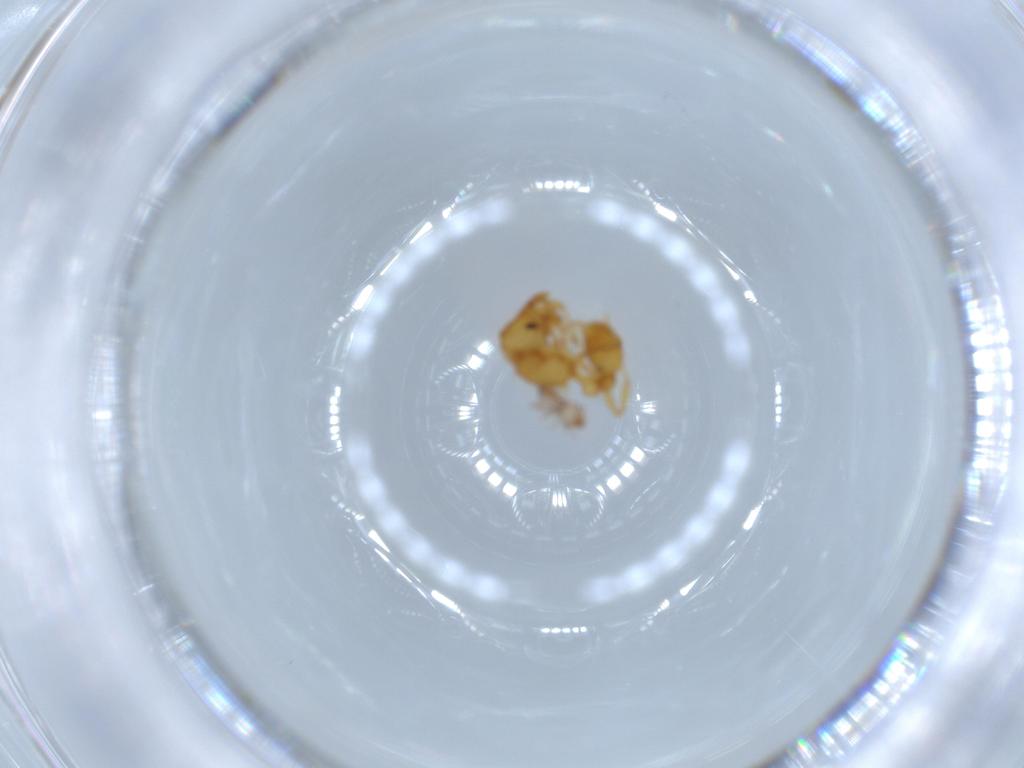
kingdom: Animalia
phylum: Arthropoda
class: Insecta
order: Hymenoptera
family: Formicidae
